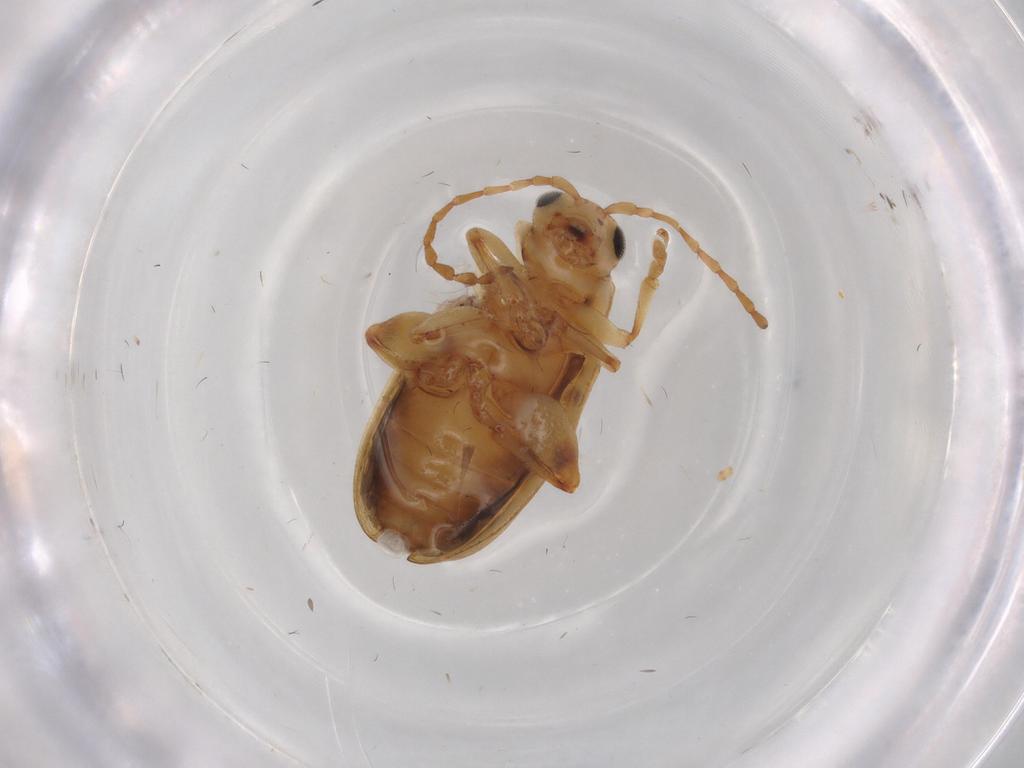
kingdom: Animalia
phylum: Arthropoda
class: Insecta
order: Coleoptera
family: Chrysomelidae
